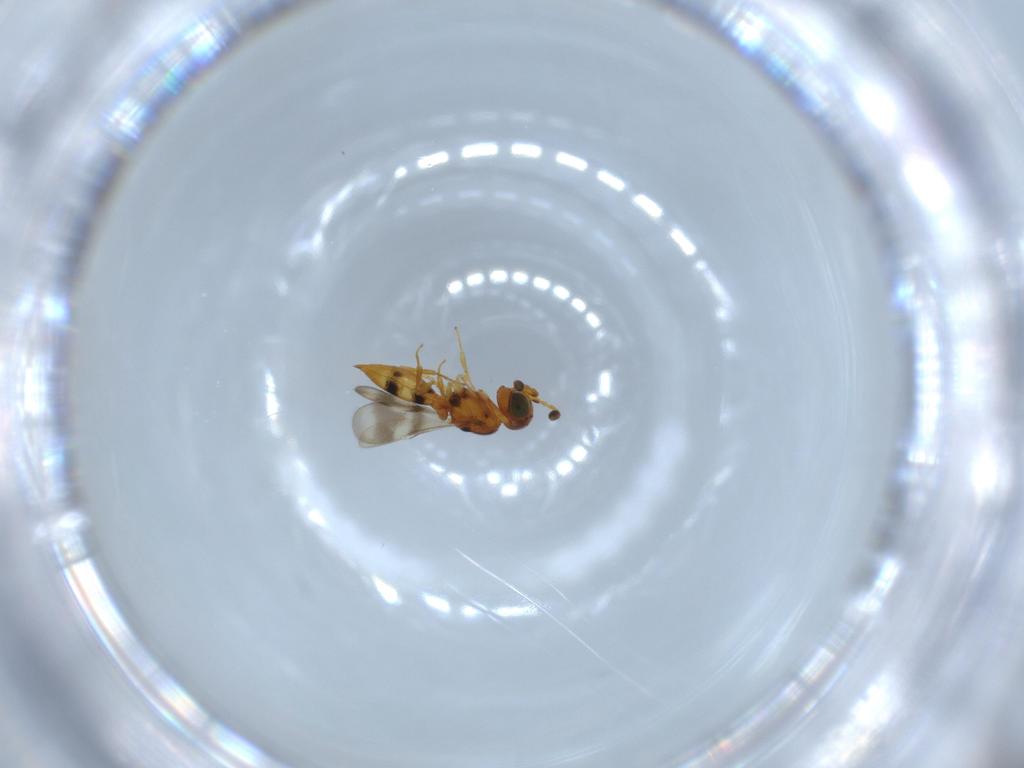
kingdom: Animalia
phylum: Arthropoda
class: Insecta
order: Hymenoptera
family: Scelionidae
